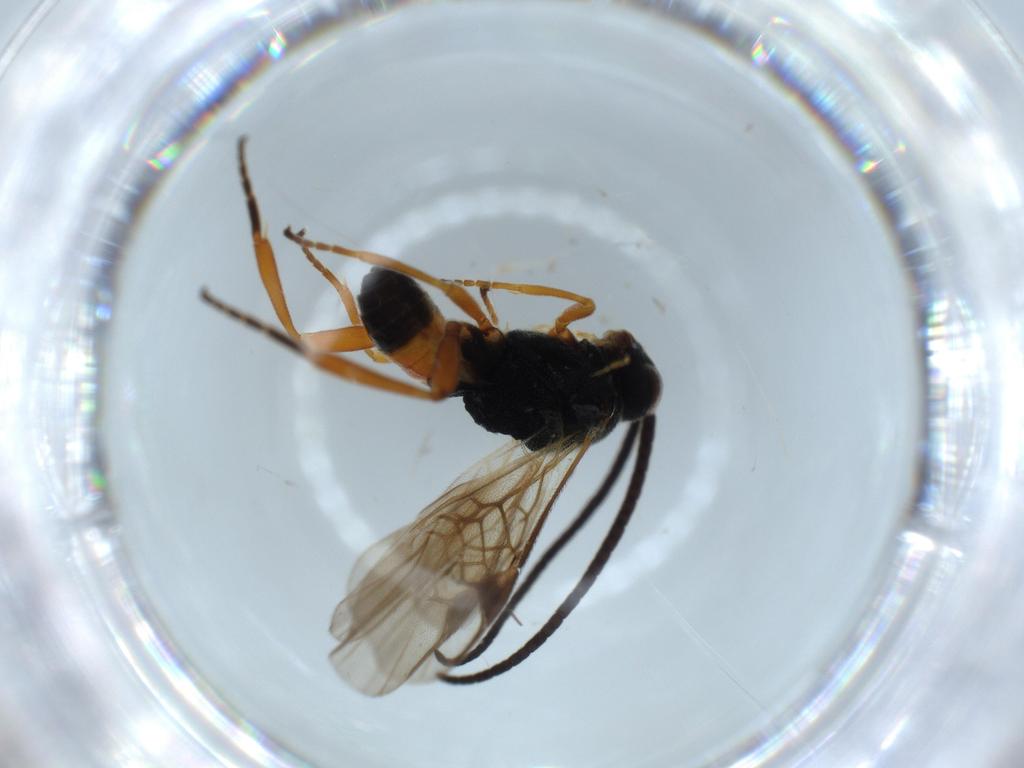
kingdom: Animalia
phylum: Arthropoda
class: Insecta
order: Hymenoptera
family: Braconidae
